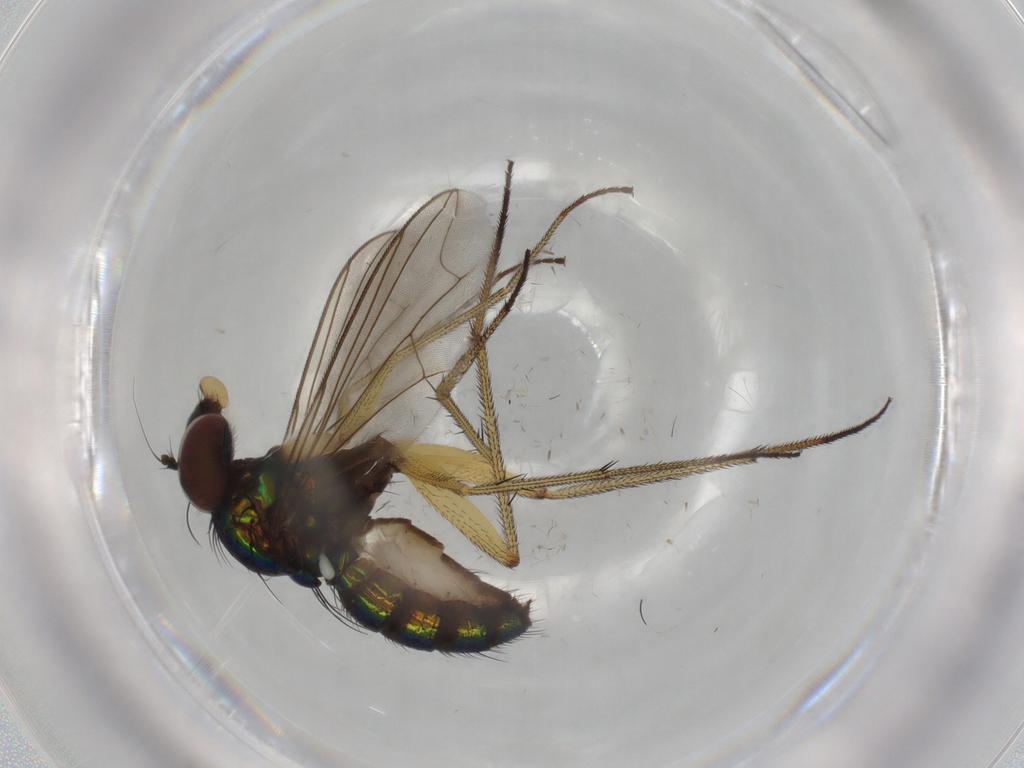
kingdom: Animalia
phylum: Arthropoda
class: Insecta
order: Diptera
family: Dolichopodidae
